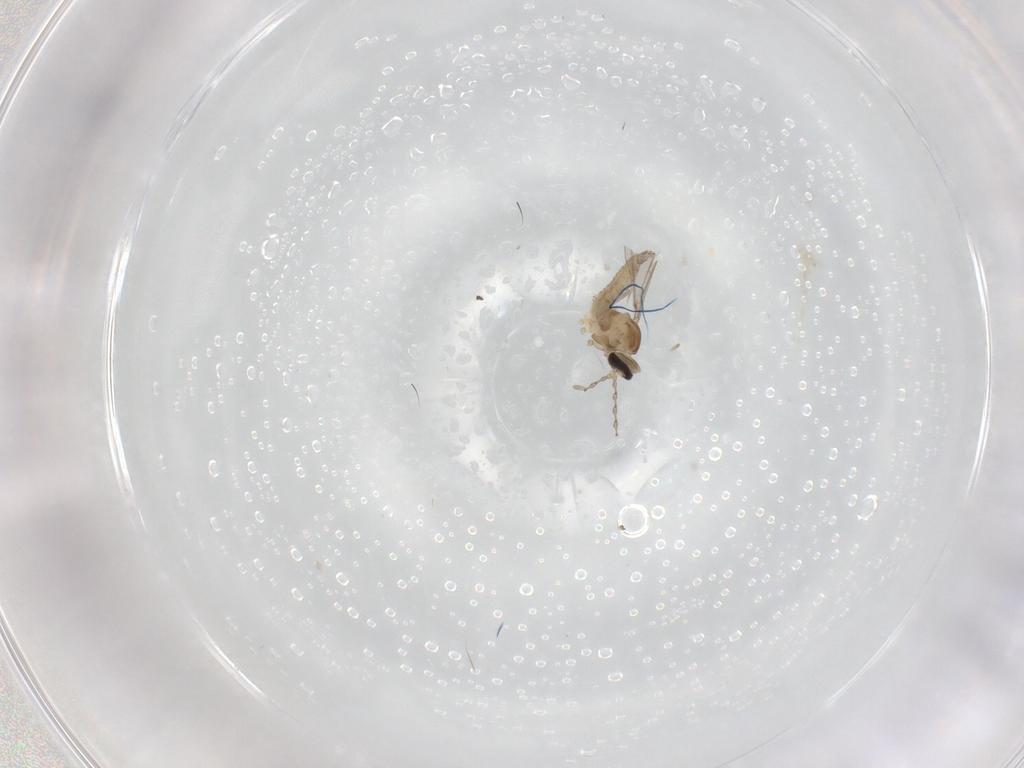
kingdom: Animalia
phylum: Arthropoda
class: Insecta
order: Diptera
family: Cecidomyiidae
